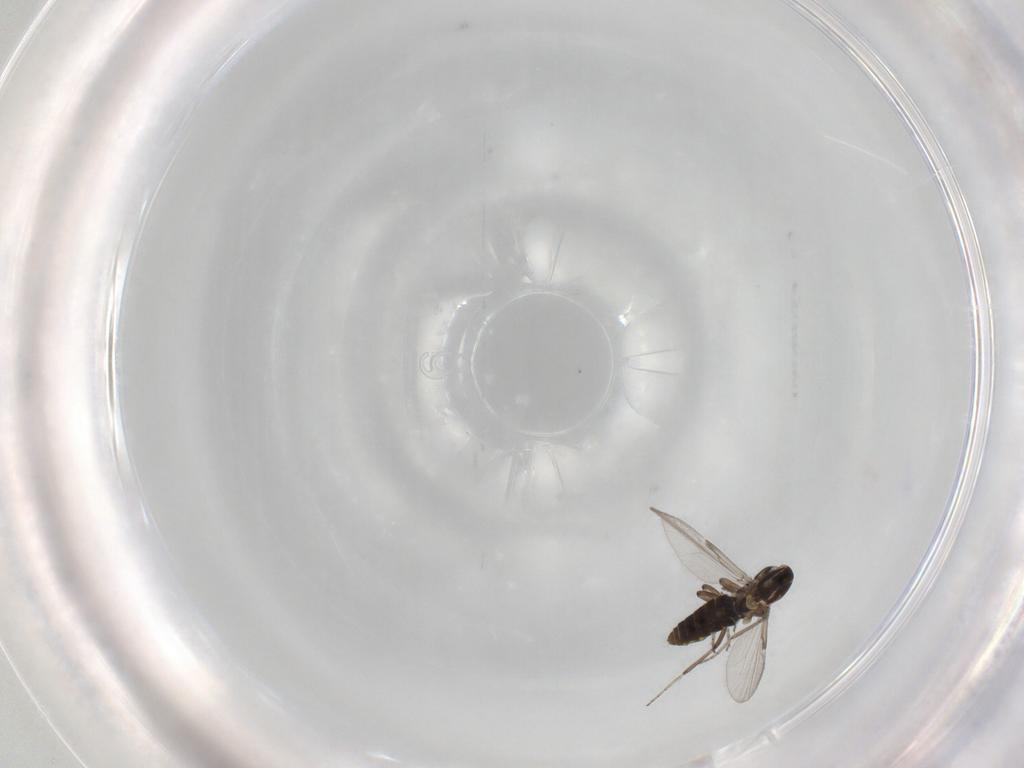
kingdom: Animalia
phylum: Arthropoda
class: Insecta
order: Diptera
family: Ceratopogonidae
